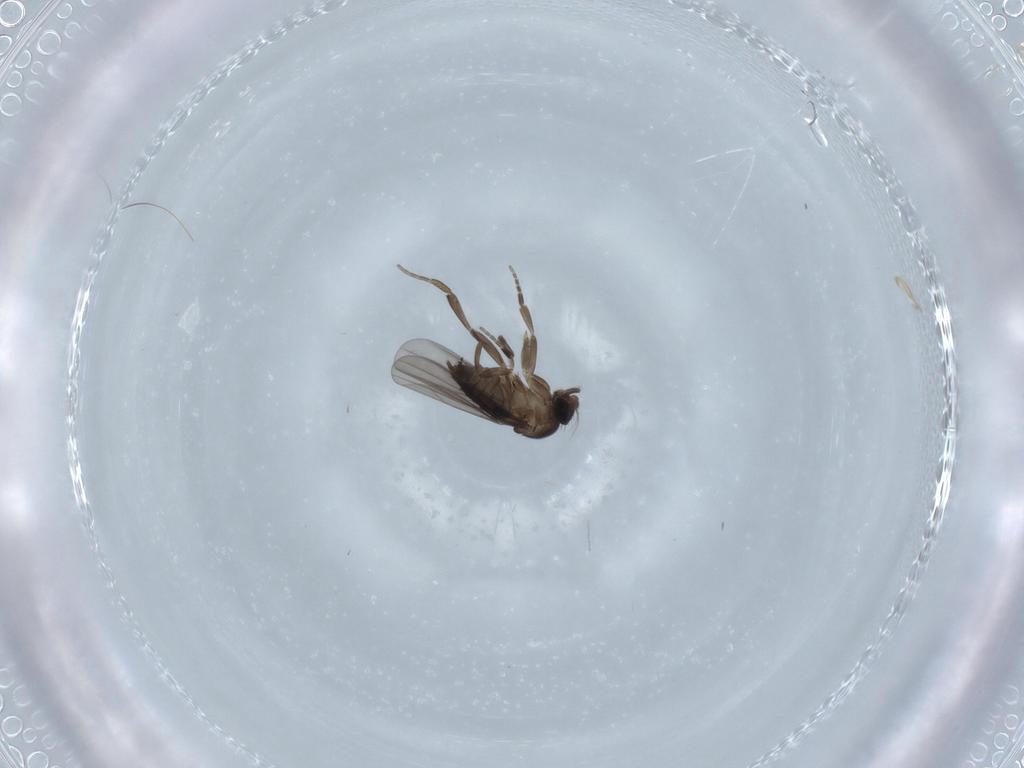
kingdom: Animalia
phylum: Arthropoda
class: Insecta
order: Diptera
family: Phoridae
